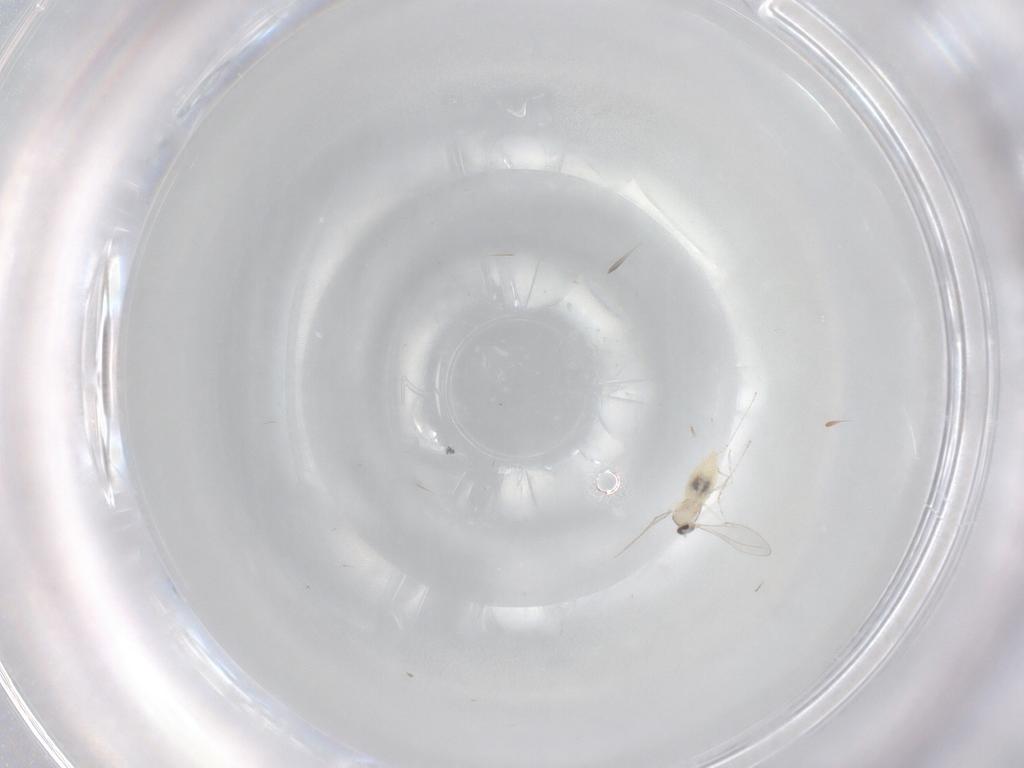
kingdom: Animalia
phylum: Arthropoda
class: Insecta
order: Diptera
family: Cecidomyiidae
